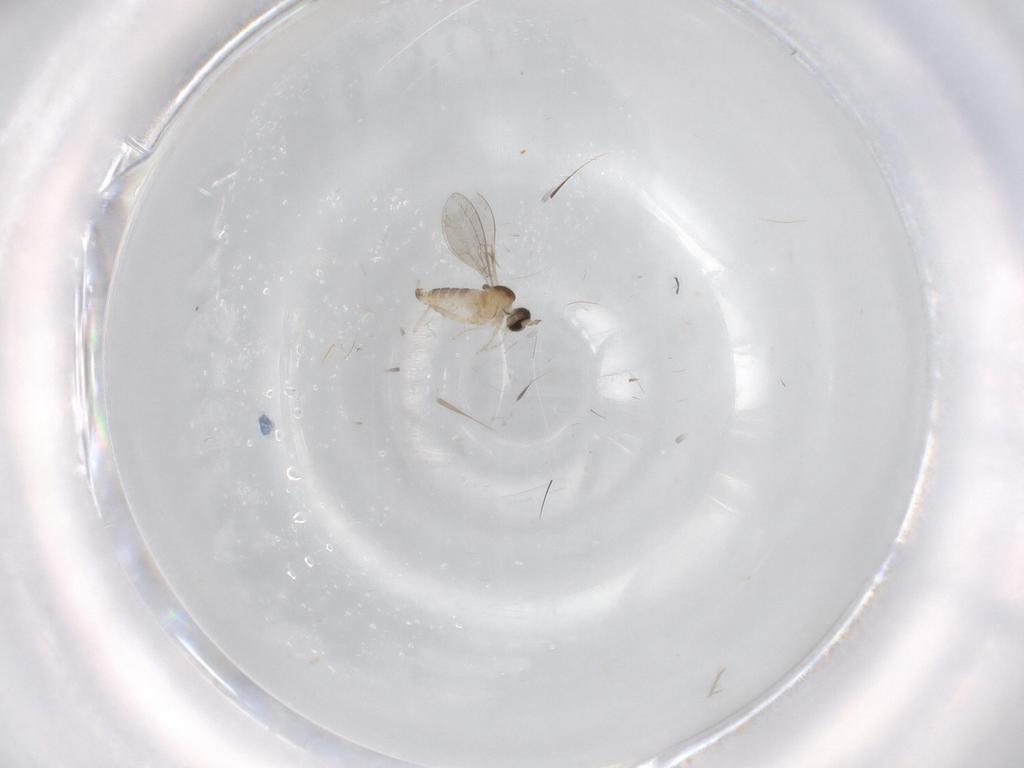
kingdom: Animalia
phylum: Arthropoda
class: Insecta
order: Diptera
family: Cecidomyiidae
